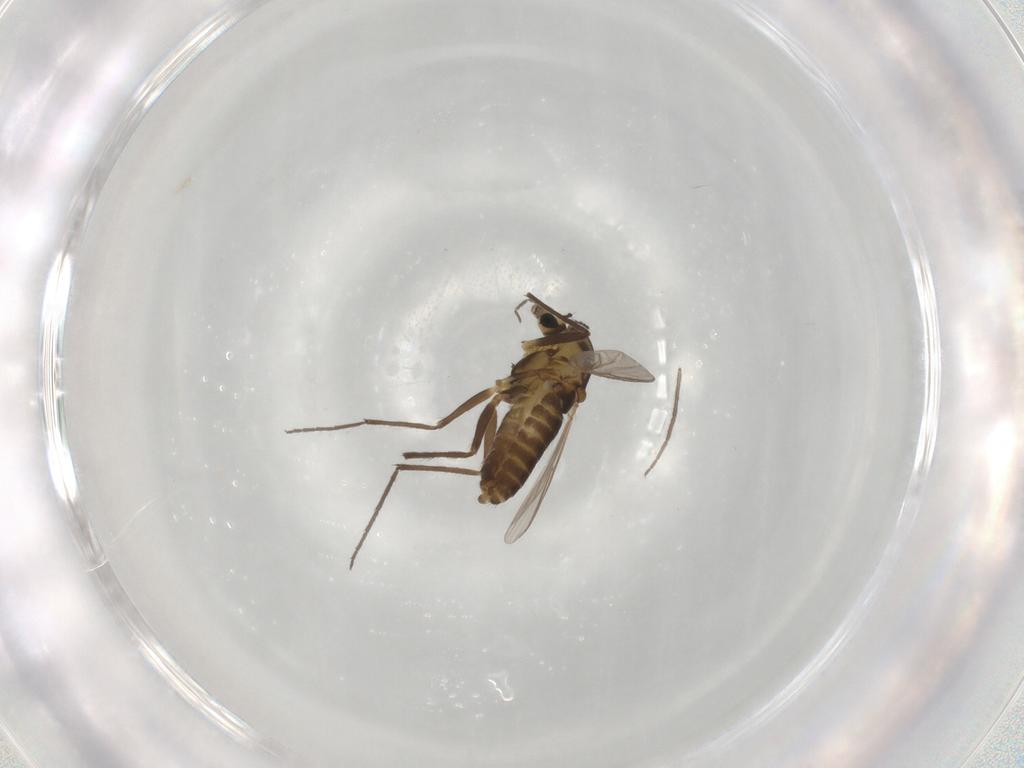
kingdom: Animalia
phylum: Arthropoda
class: Insecta
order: Diptera
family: Chironomidae
